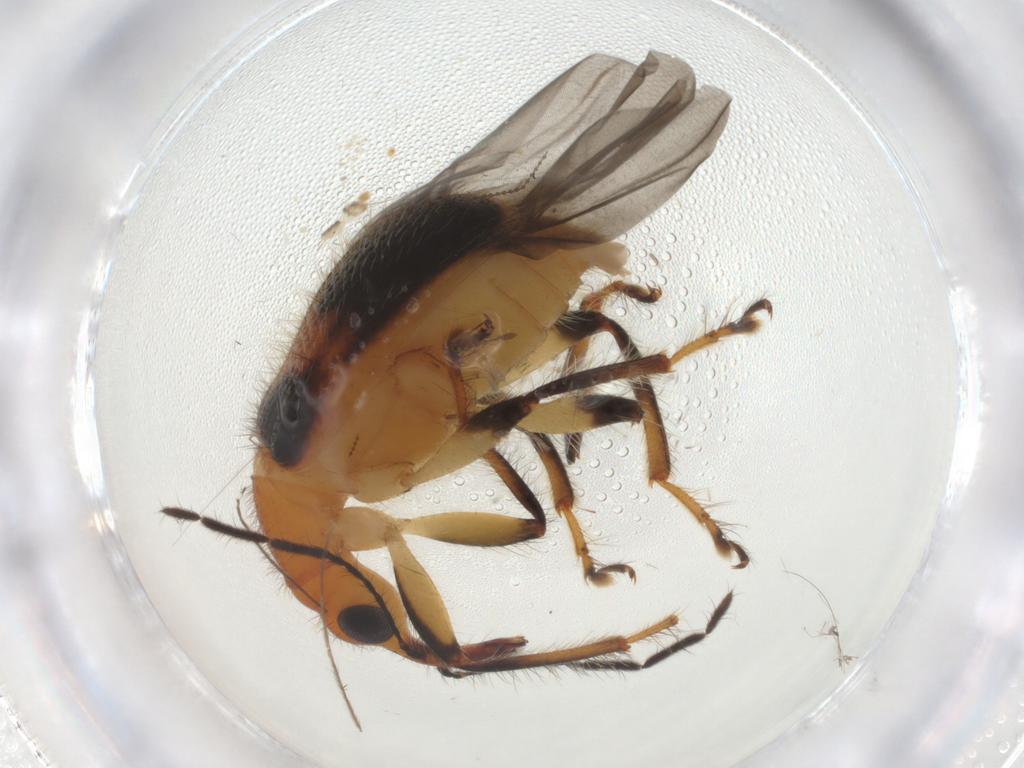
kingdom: Animalia
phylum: Arthropoda
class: Insecta
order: Coleoptera
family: Attelabidae
